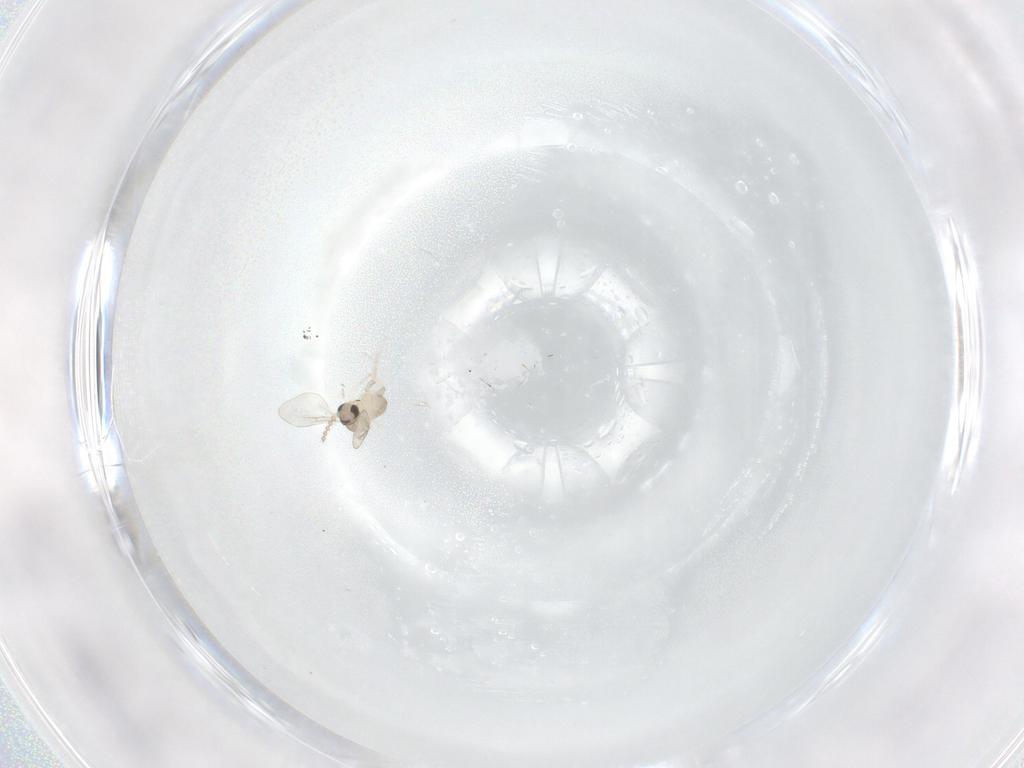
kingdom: Animalia
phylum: Arthropoda
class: Insecta
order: Diptera
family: Cecidomyiidae
